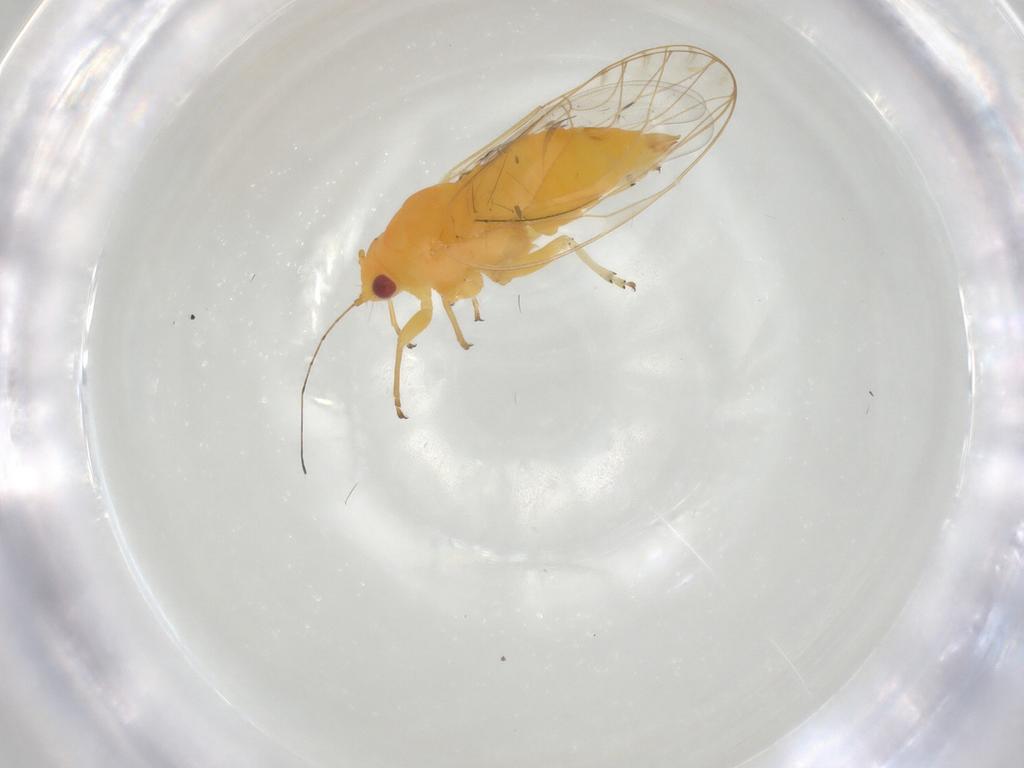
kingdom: Animalia
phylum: Arthropoda
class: Insecta
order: Hemiptera
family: Psyllidae
